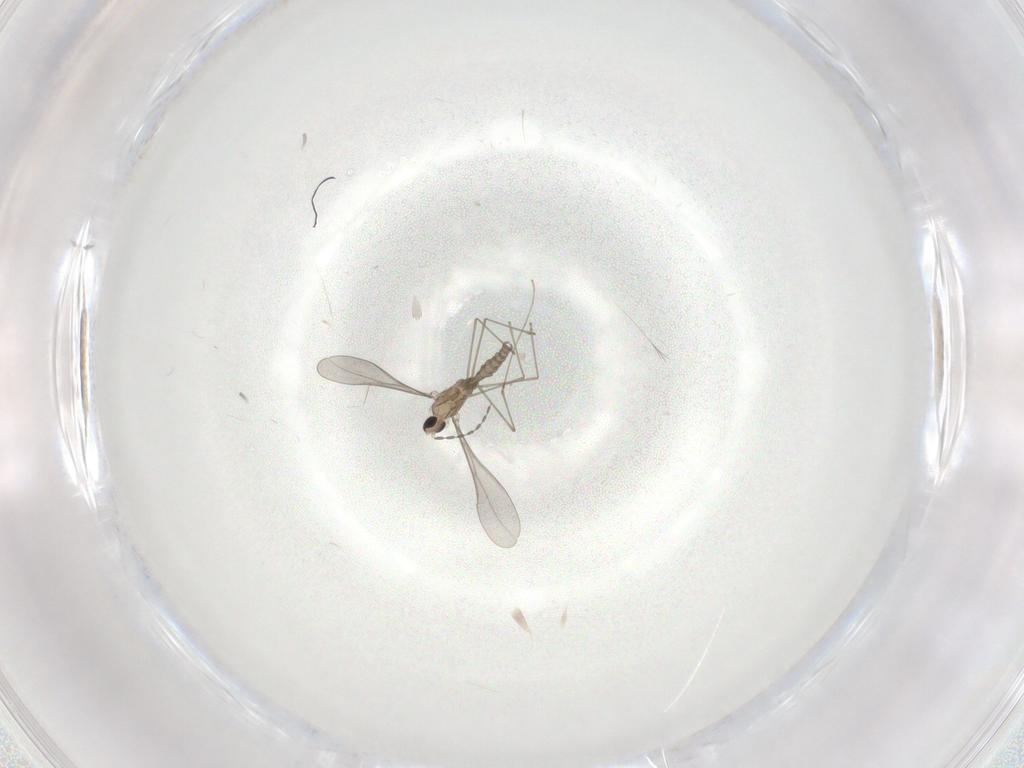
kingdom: Animalia
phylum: Arthropoda
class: Insecta
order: Diptera
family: Cecidomyiidae
